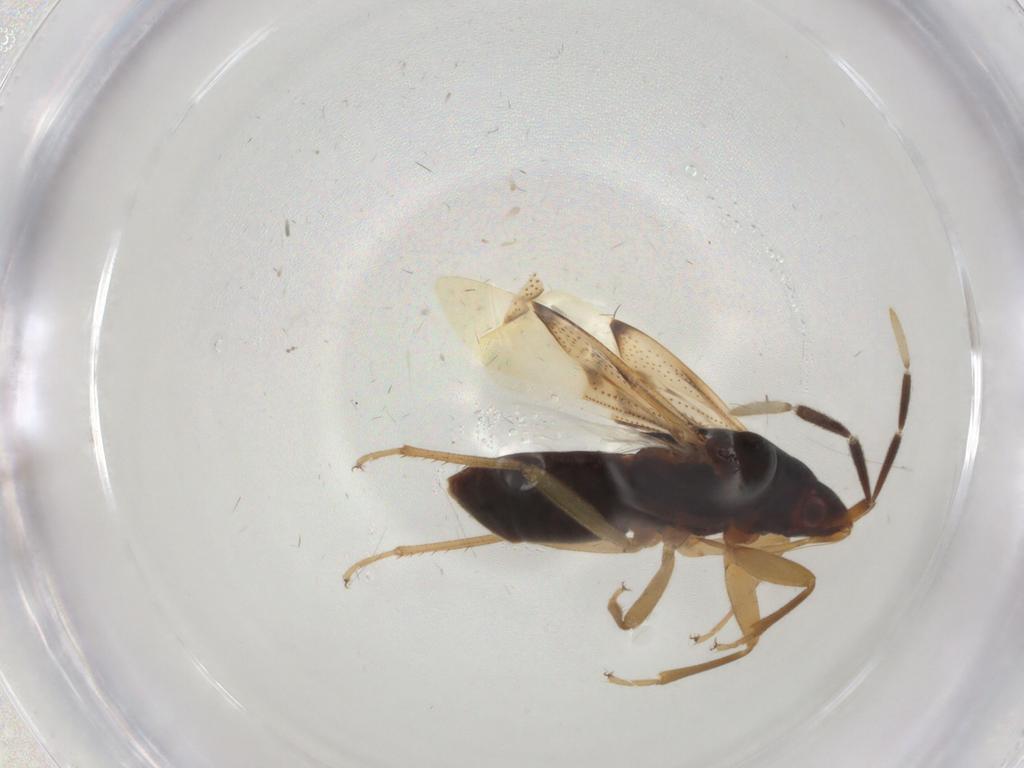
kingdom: Animalia
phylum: Arthropoda
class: Insecta
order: Hemiptera
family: Rhyparochromidae
